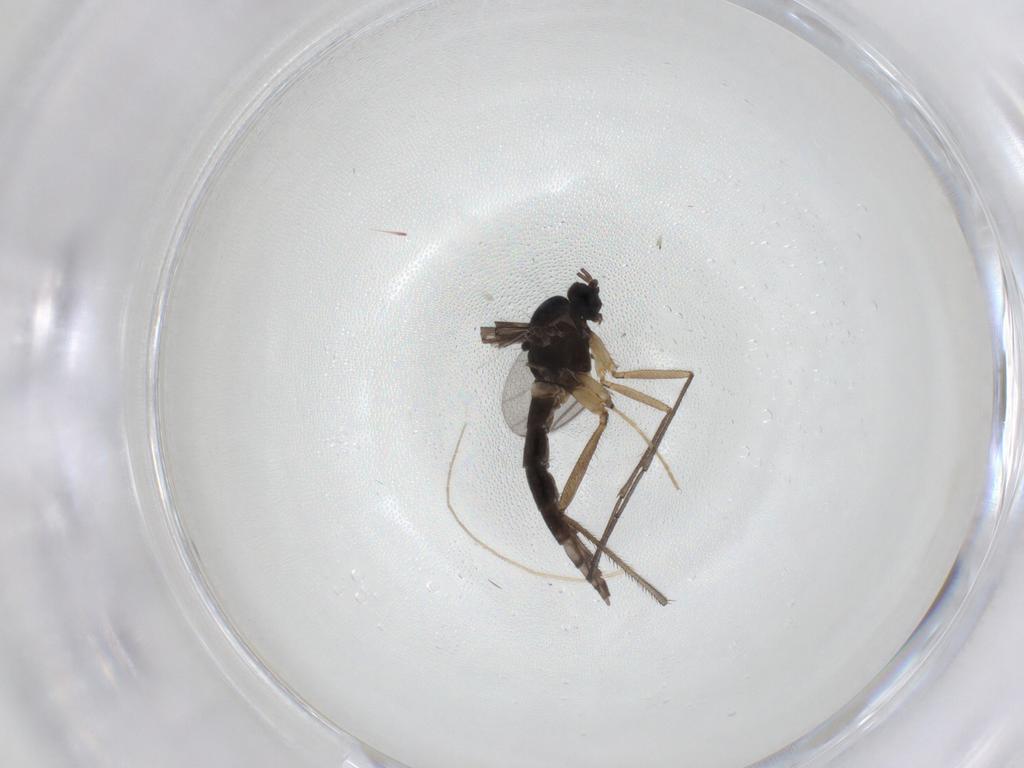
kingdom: Animalia
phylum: Arthropoda
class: Insecta
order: Diptera
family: Sciaridae
